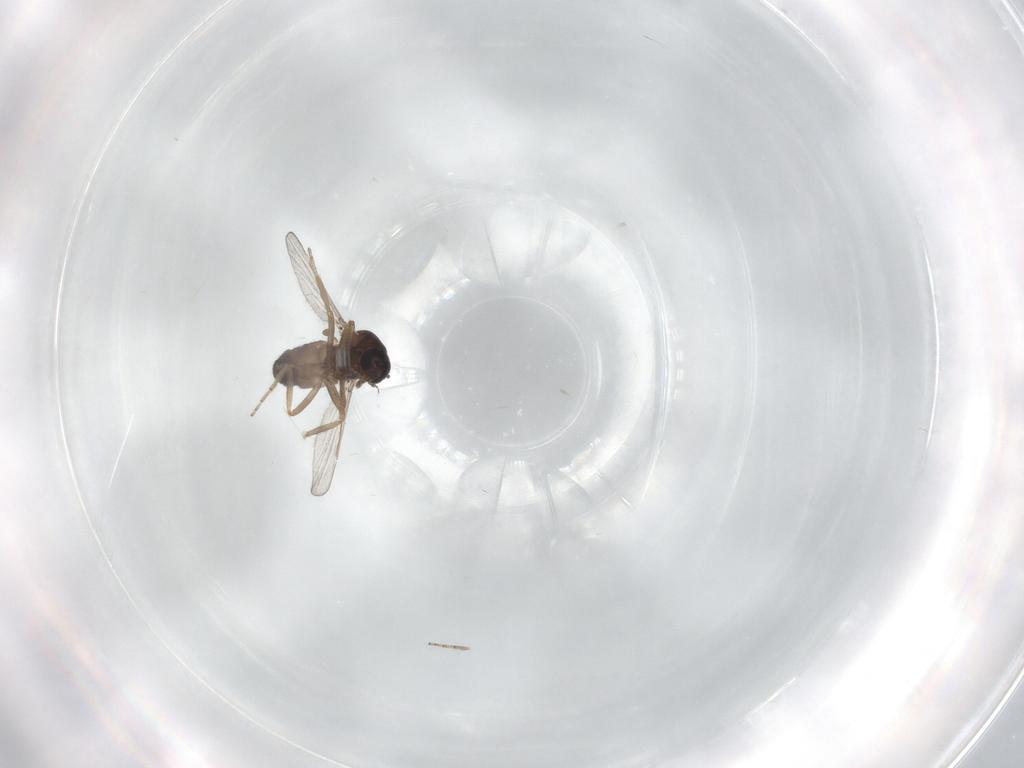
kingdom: Animalia
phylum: Arthropoda
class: Insecta
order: Diptera
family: Ceratopogonidae
